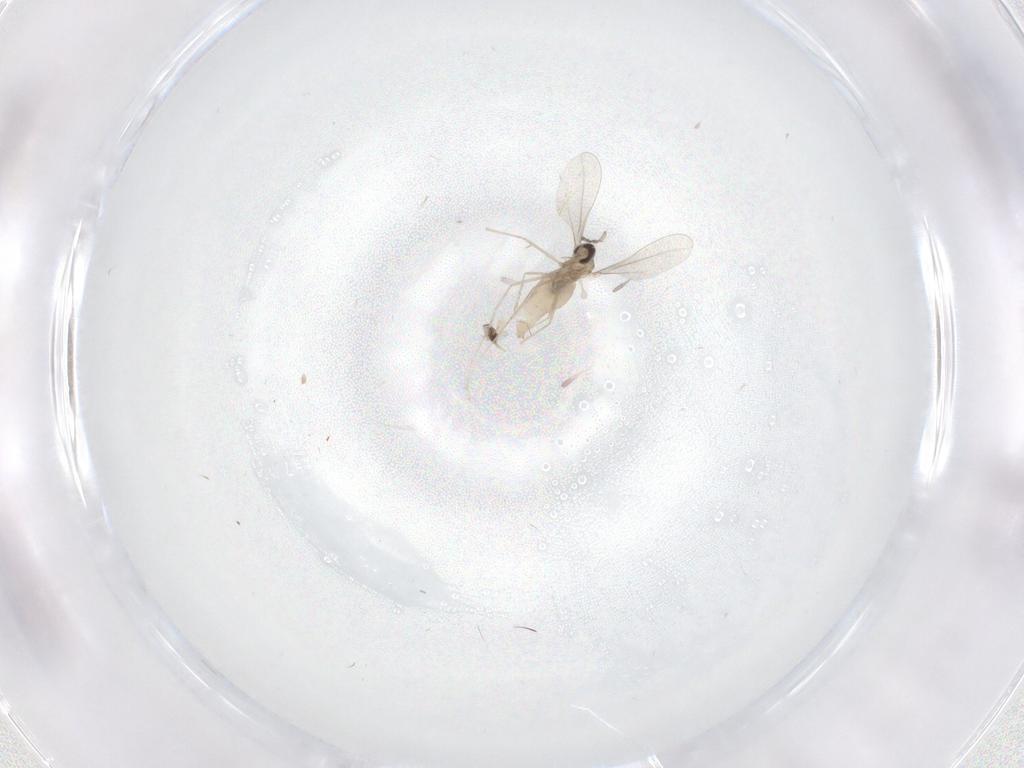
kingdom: Animalia
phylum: Arthropoda
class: Insecta
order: Diptera
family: Cecidomyiidae
